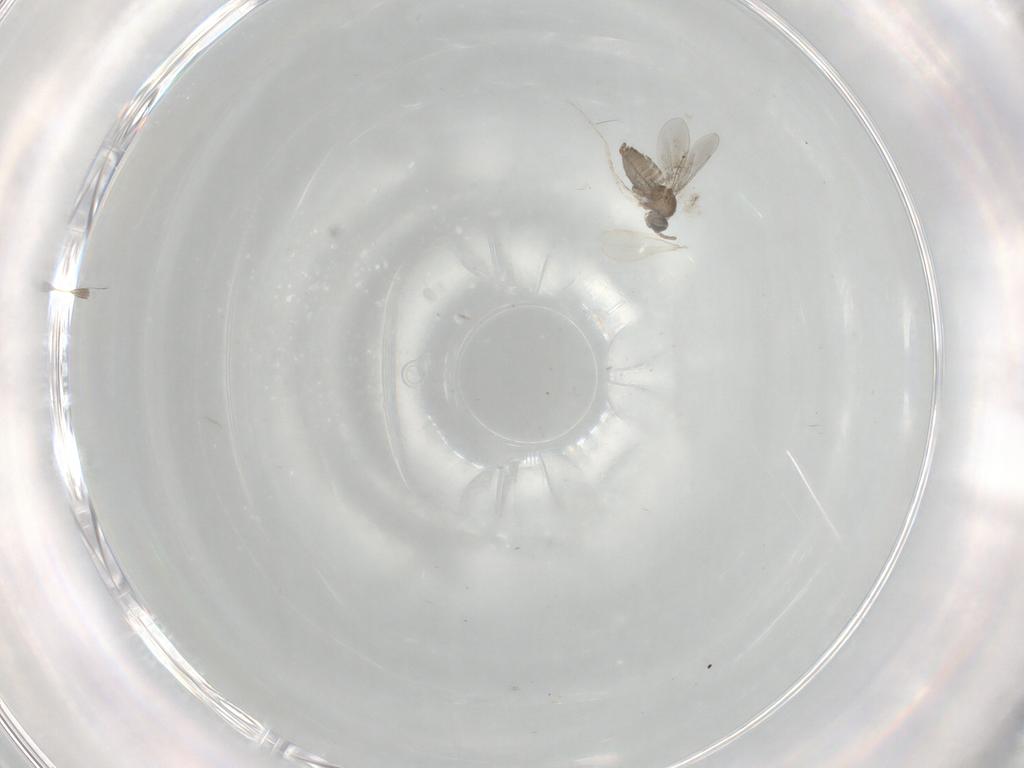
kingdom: Animalia
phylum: Arthropoda
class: Insecta
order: Diptera
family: Cecidomyiidae
